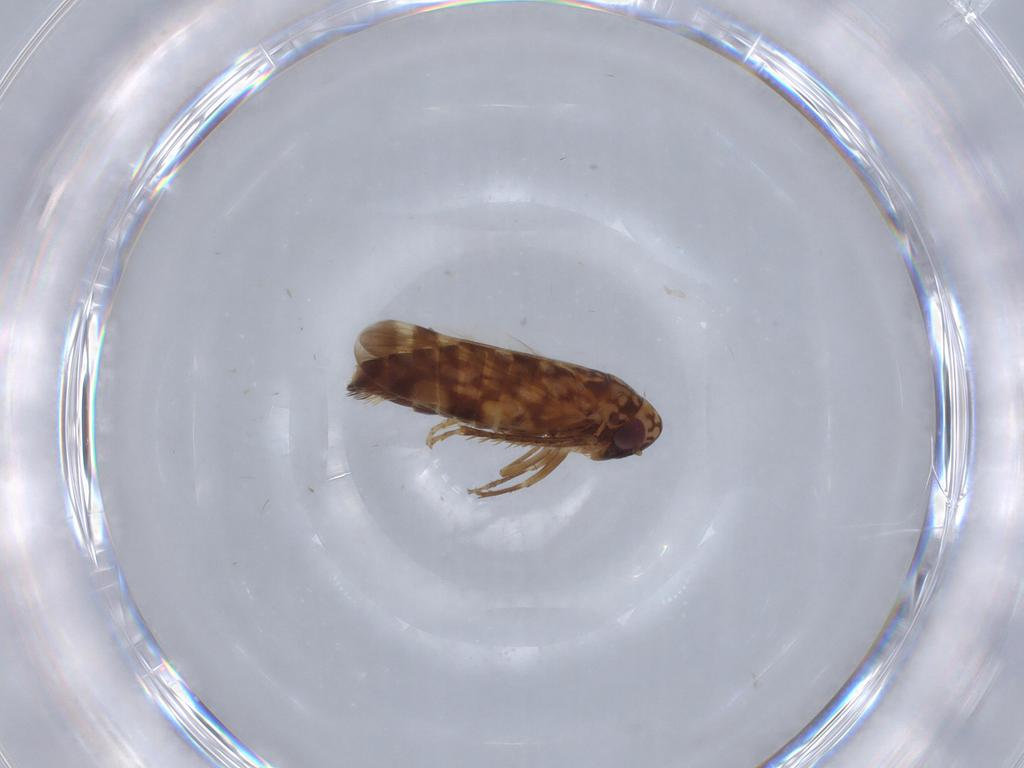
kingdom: Animalia
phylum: Arthropoda
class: Insecta
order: Hemiptera
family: Cicadellidae
